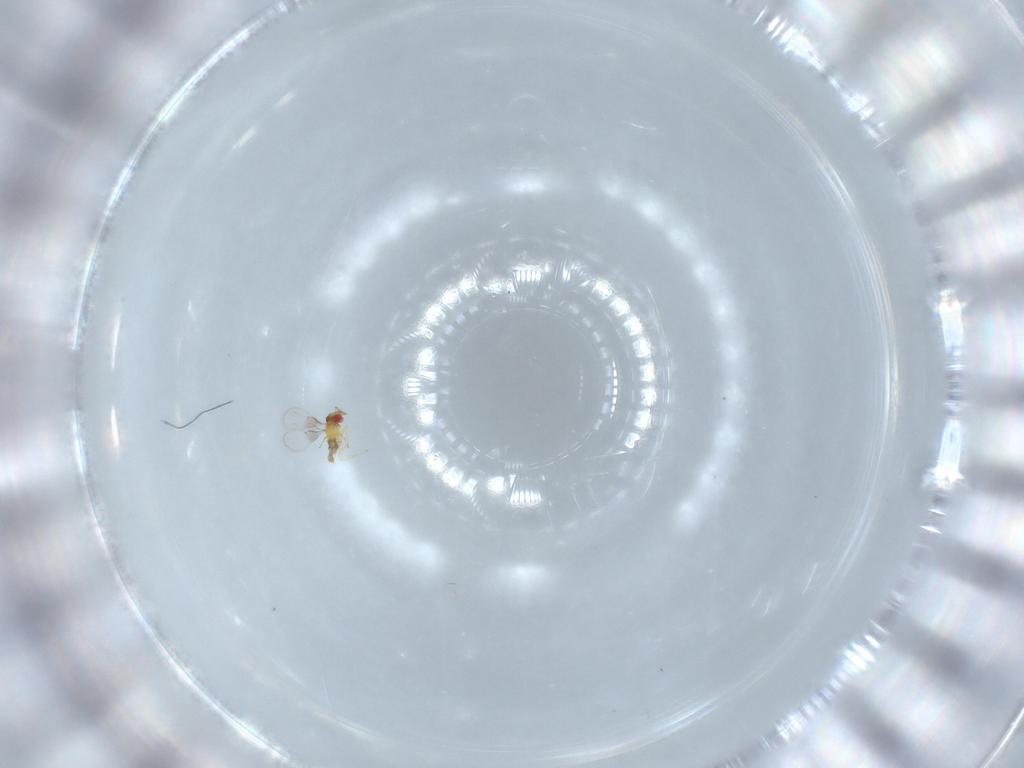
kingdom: Animalia
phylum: Arthropoda
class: Insecta
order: Hymenoptera
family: Trichogrammatidae
